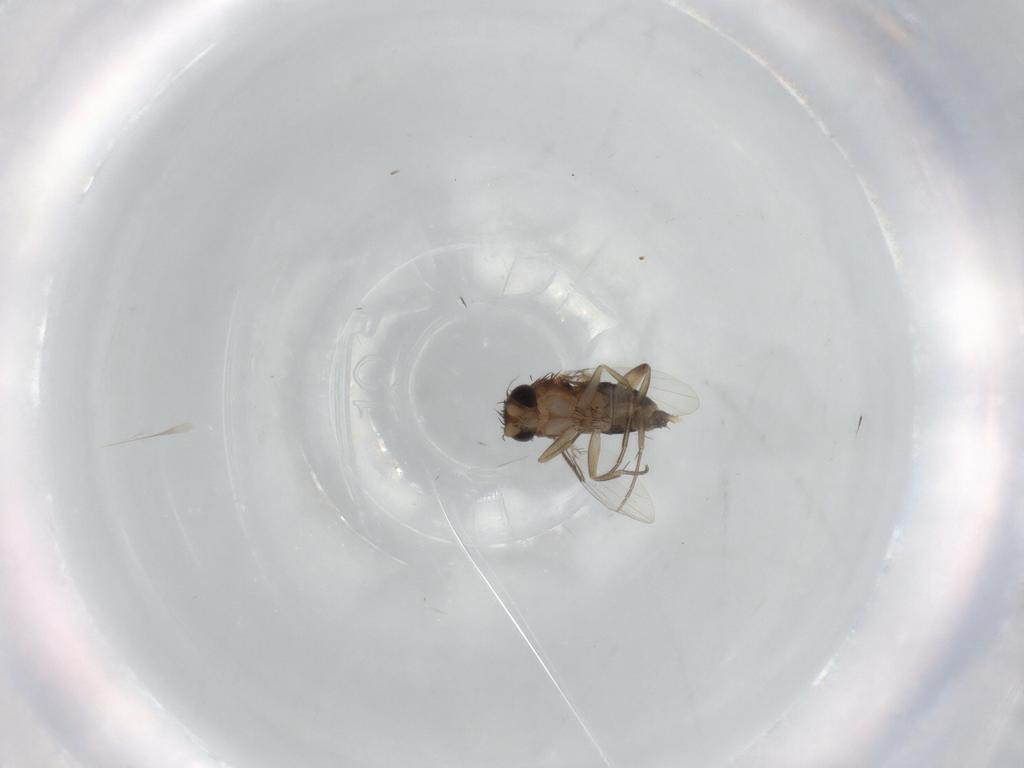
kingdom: Animalia
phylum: Arthropoda
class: Insecta
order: Diptera
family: Phoridae
